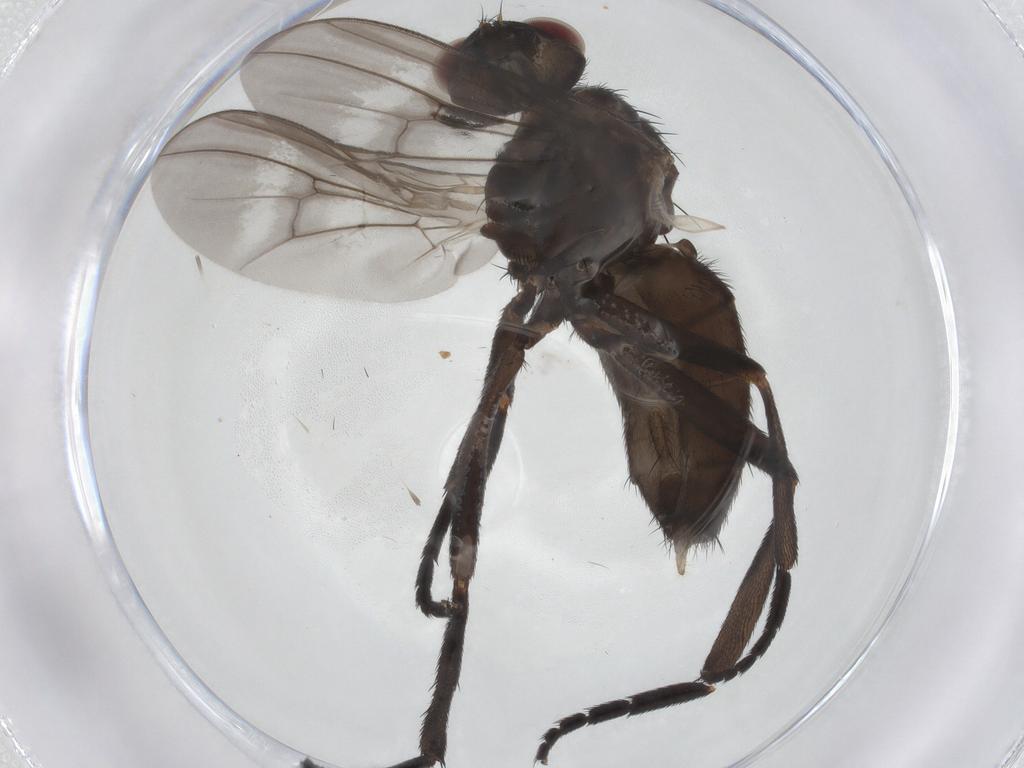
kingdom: Animalia
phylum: Arthropoda
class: Insecta
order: Diptera
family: Calliphoridae
